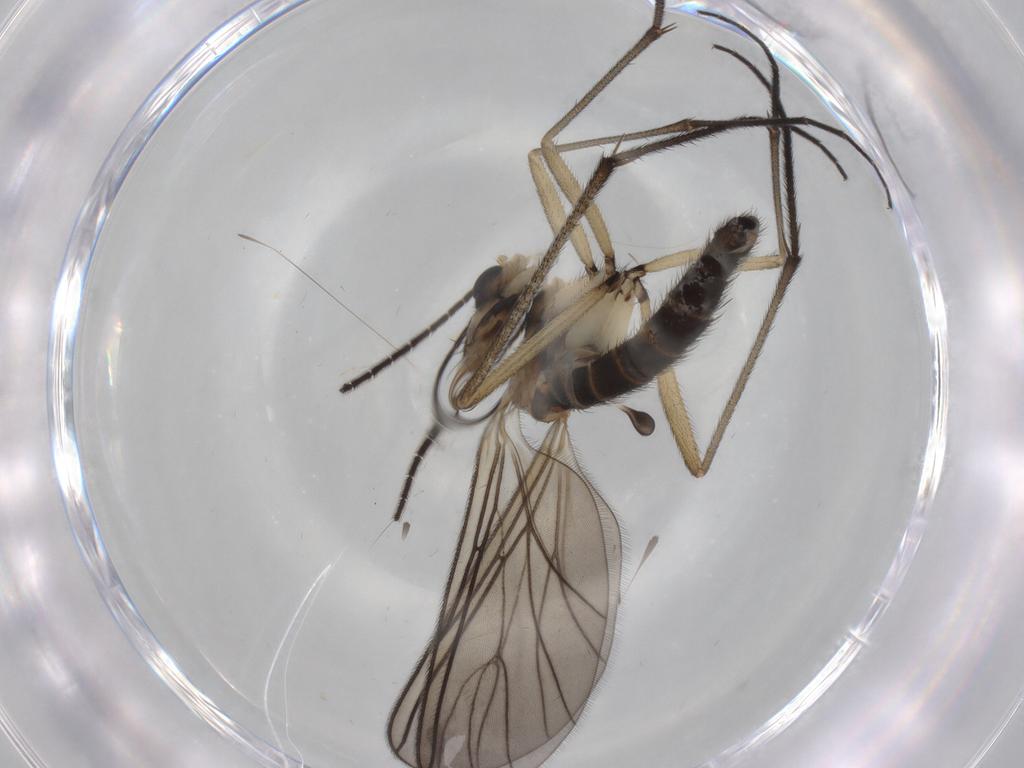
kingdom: Animalia
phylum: Arthropoda
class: Insecta
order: Diptera
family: Sciaridae
